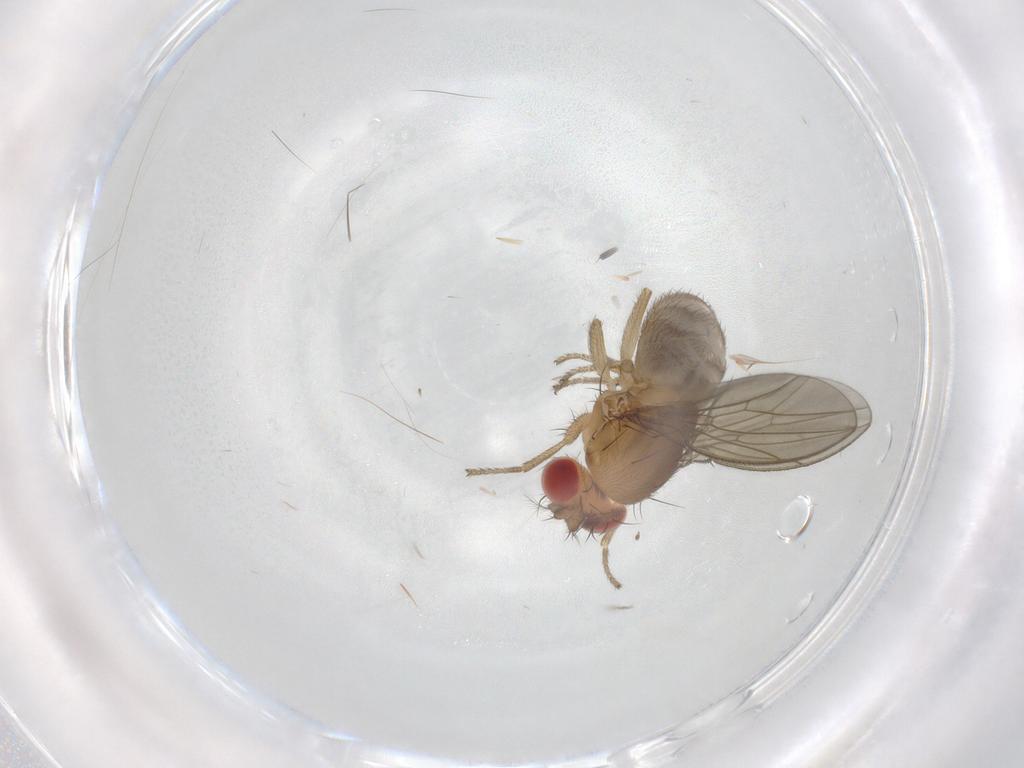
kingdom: Animalia
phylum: Arthropoda
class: Insecta
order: Diptera
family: Drosophilidae
